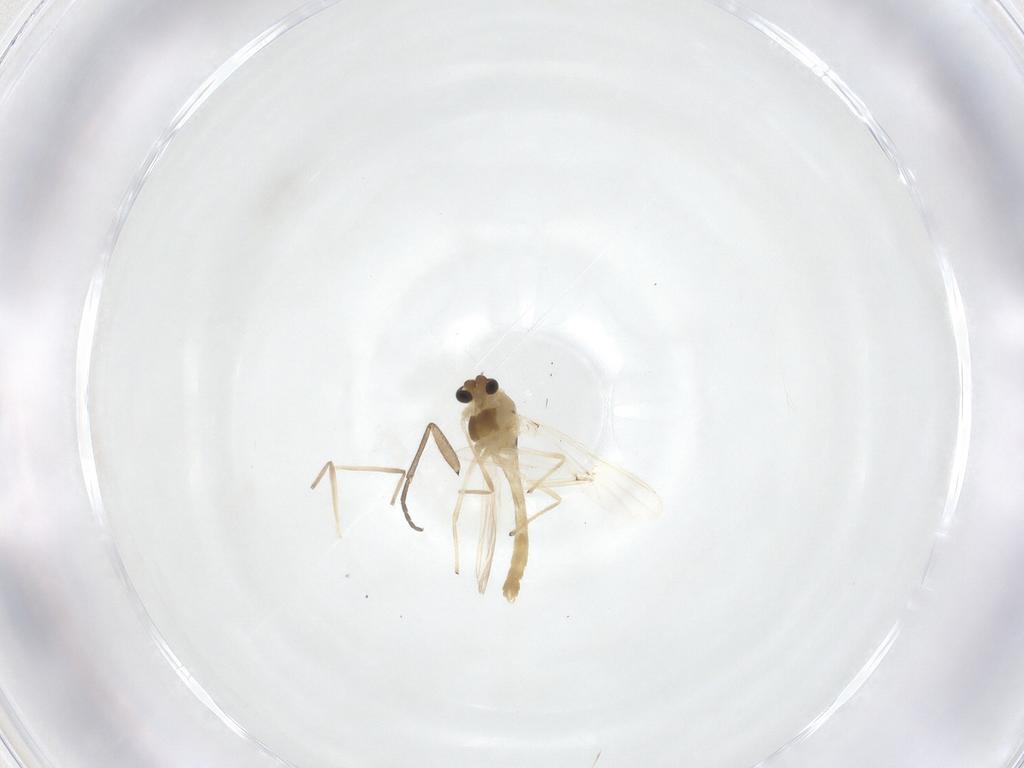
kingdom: Animalia
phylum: Arthropoda
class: Insecta
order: Diptera
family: Chironomidae
